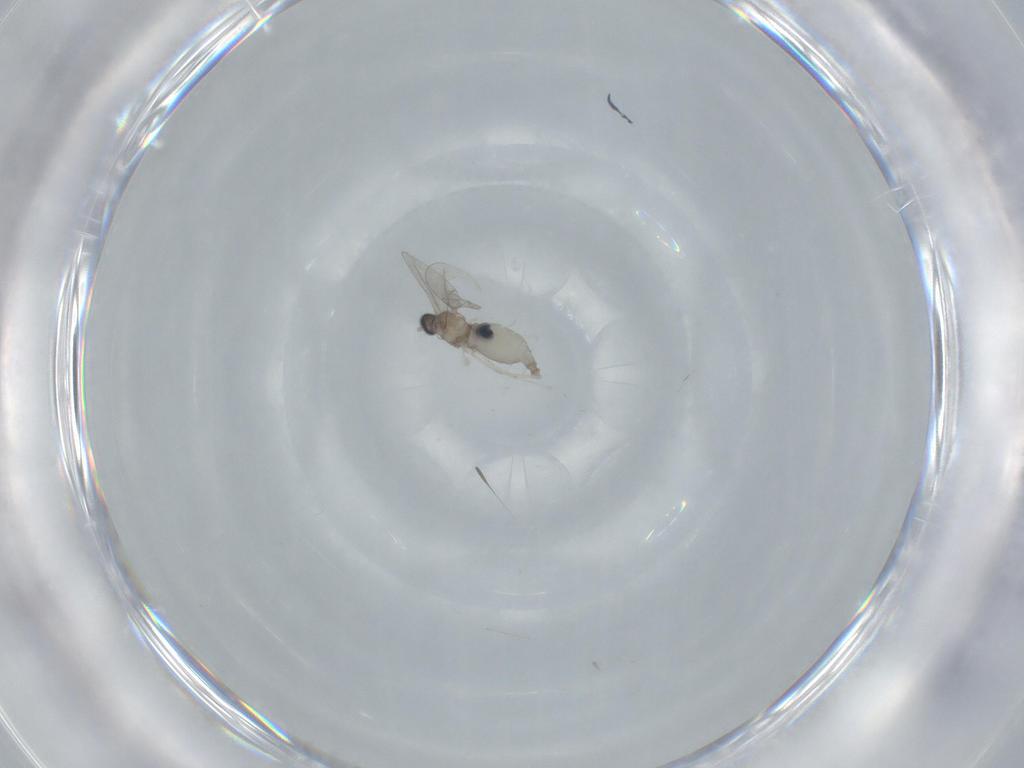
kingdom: Animalia
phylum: Arthropoda
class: Insecta
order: Diptera
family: Cecidomyiidae
